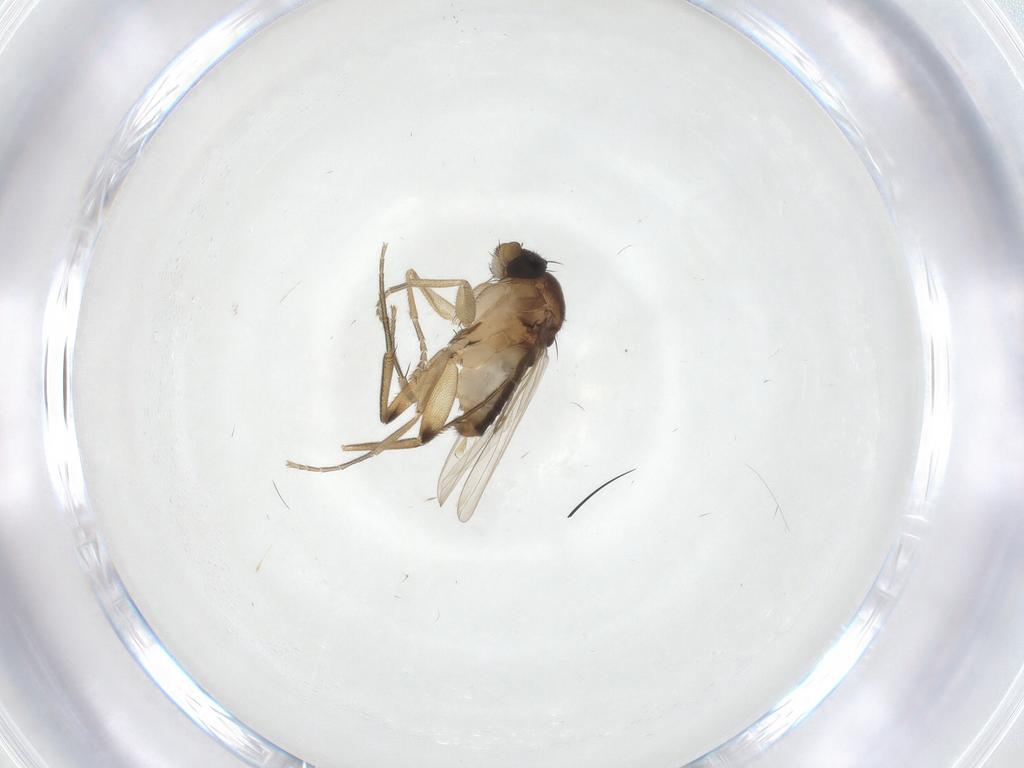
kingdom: Animalia
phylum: Arthropoda
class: Insecta
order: Diptera
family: Phoridae
